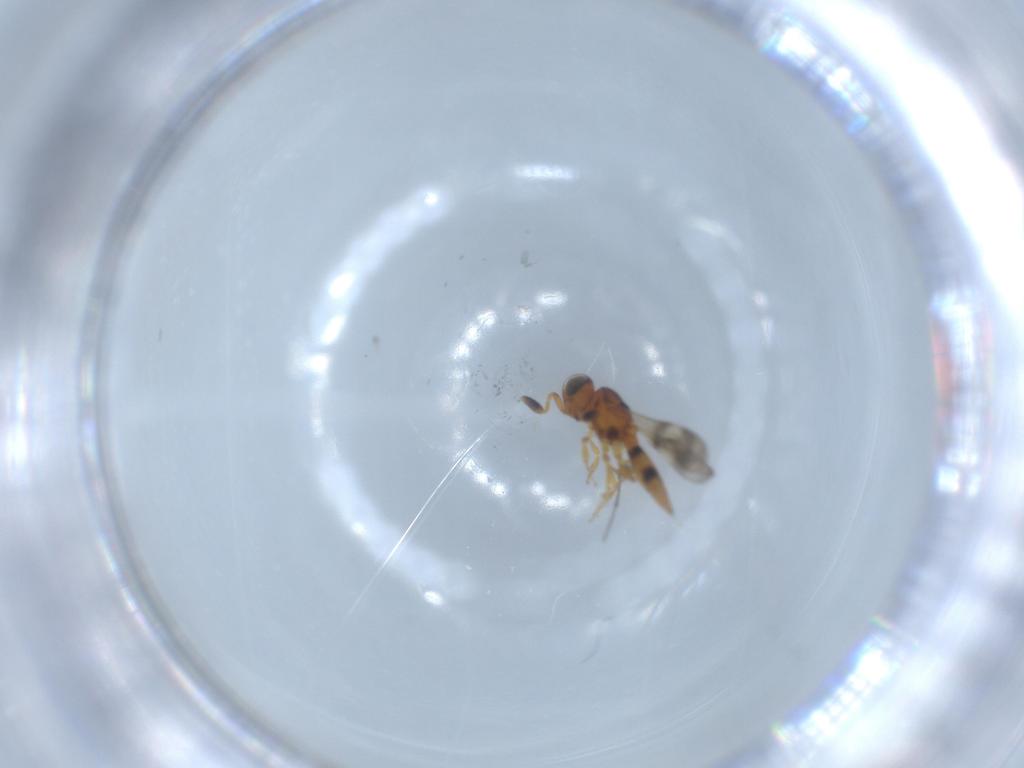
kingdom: Animalia
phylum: Arthropoda
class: Insecta
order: Hymenoptera
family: Scelionidae
